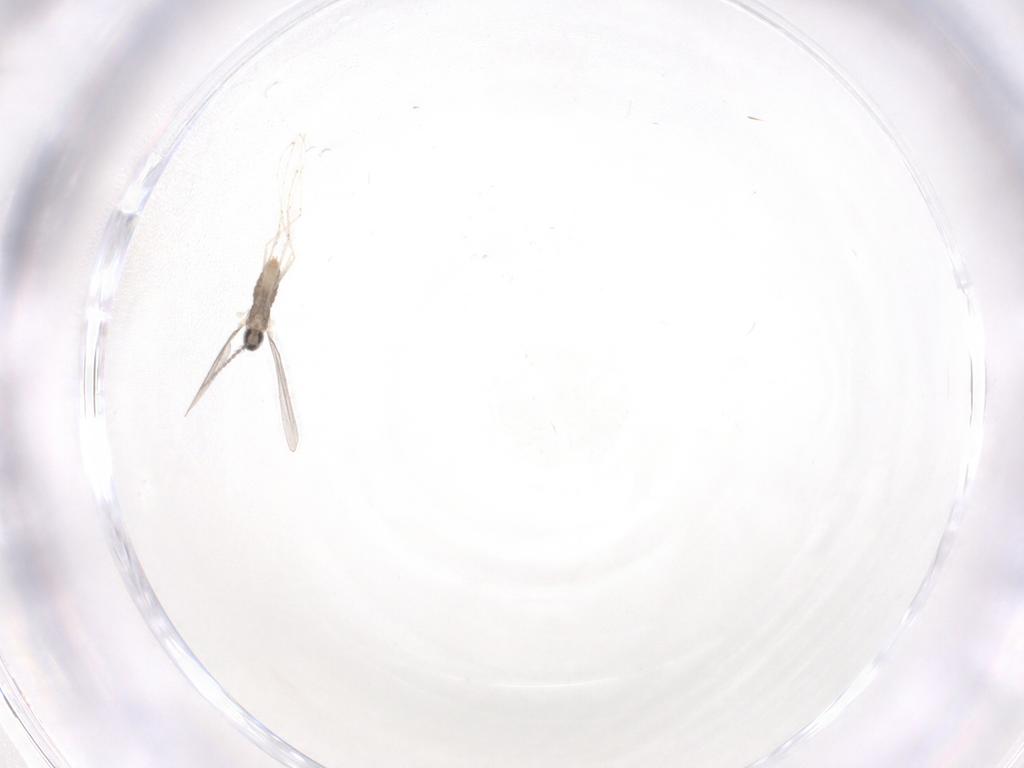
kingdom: Animalia
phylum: Arthropoda
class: Insecta
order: Diptera
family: Cecidomyiidae
